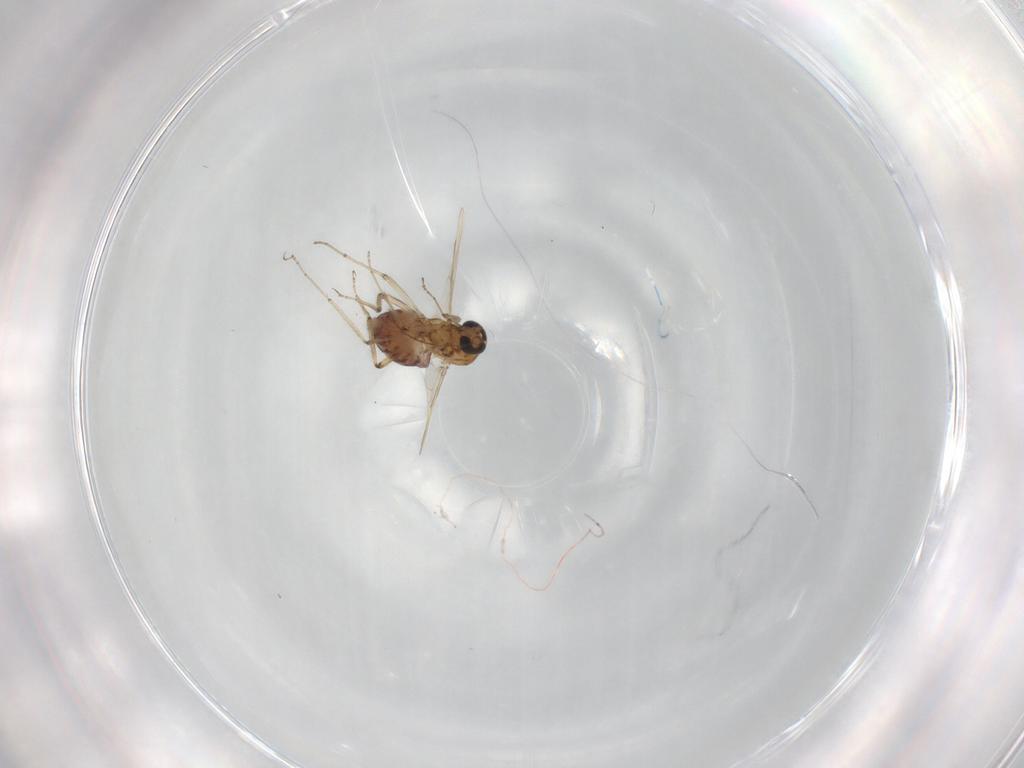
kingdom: Animalia
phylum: Arthropoda
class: Insecta
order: Diptera
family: Ceratopogonidae
